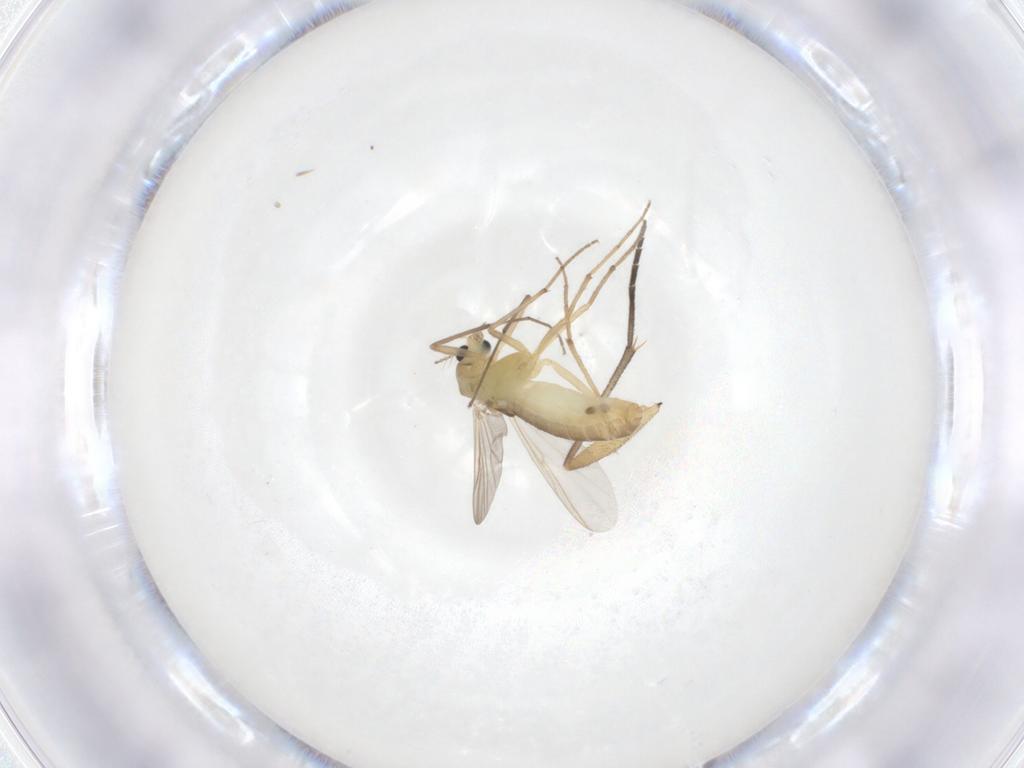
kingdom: Animalia
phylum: Arthropoda
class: Insecta
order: Diptera
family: Chironomidae
